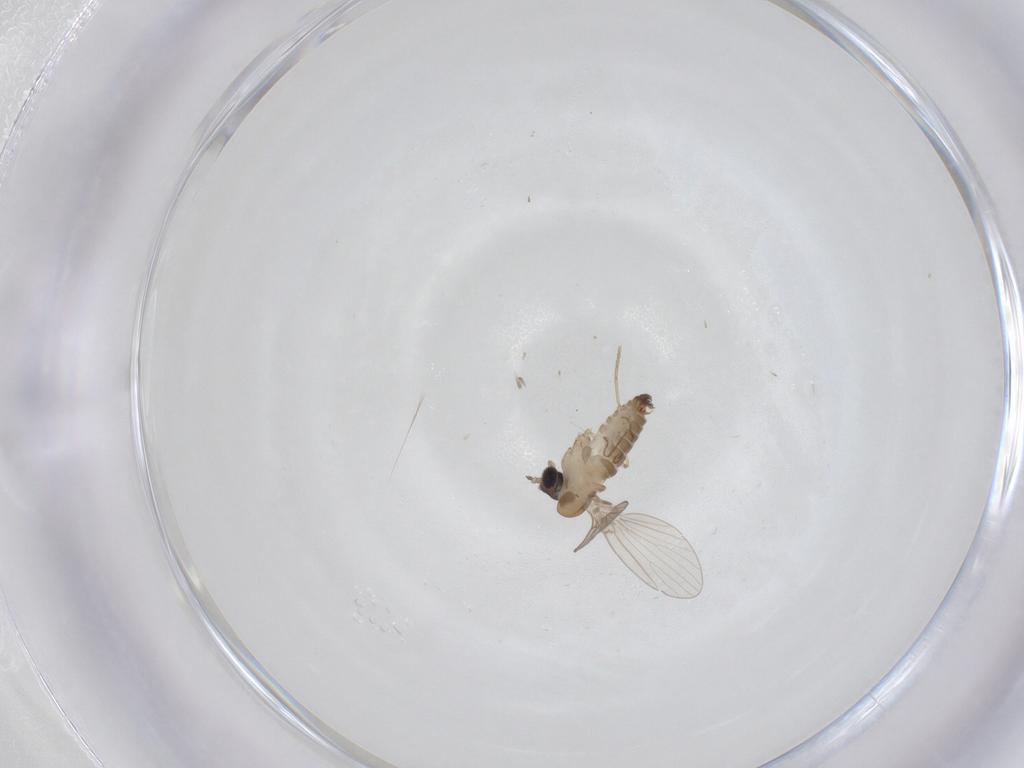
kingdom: Animalia
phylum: Arthropoda
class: Insecta
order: Diptera
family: Psychodidae
